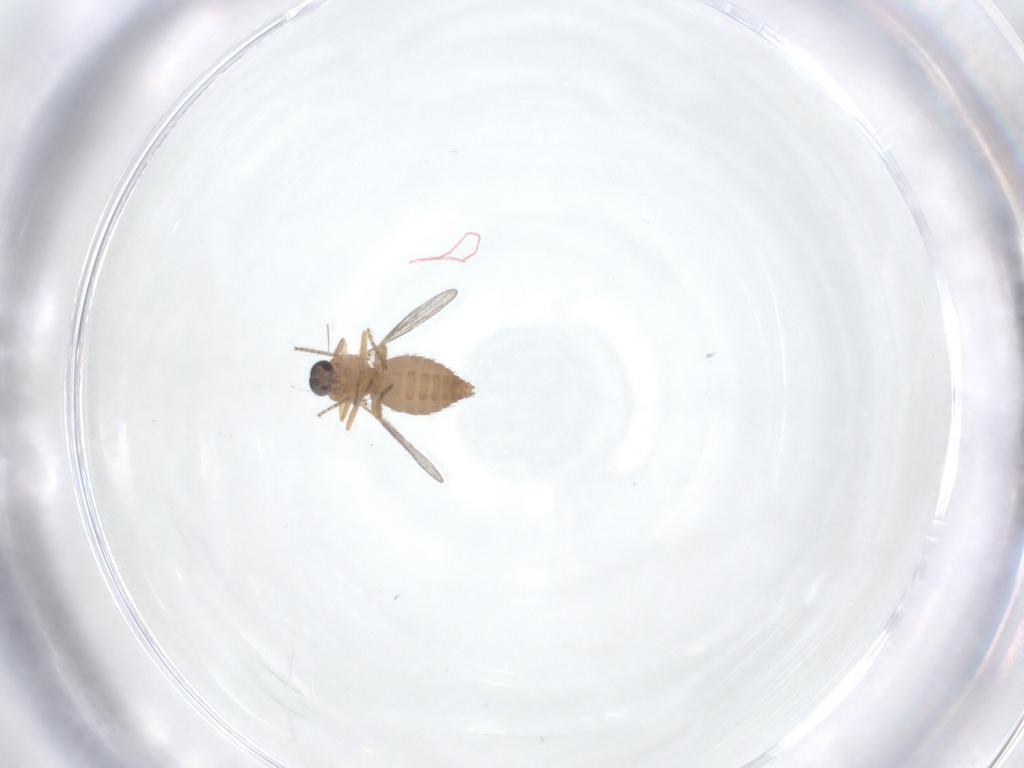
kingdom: Animalia
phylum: Arthropoda
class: Insecta
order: Diptera
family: Ceratopogonidae
